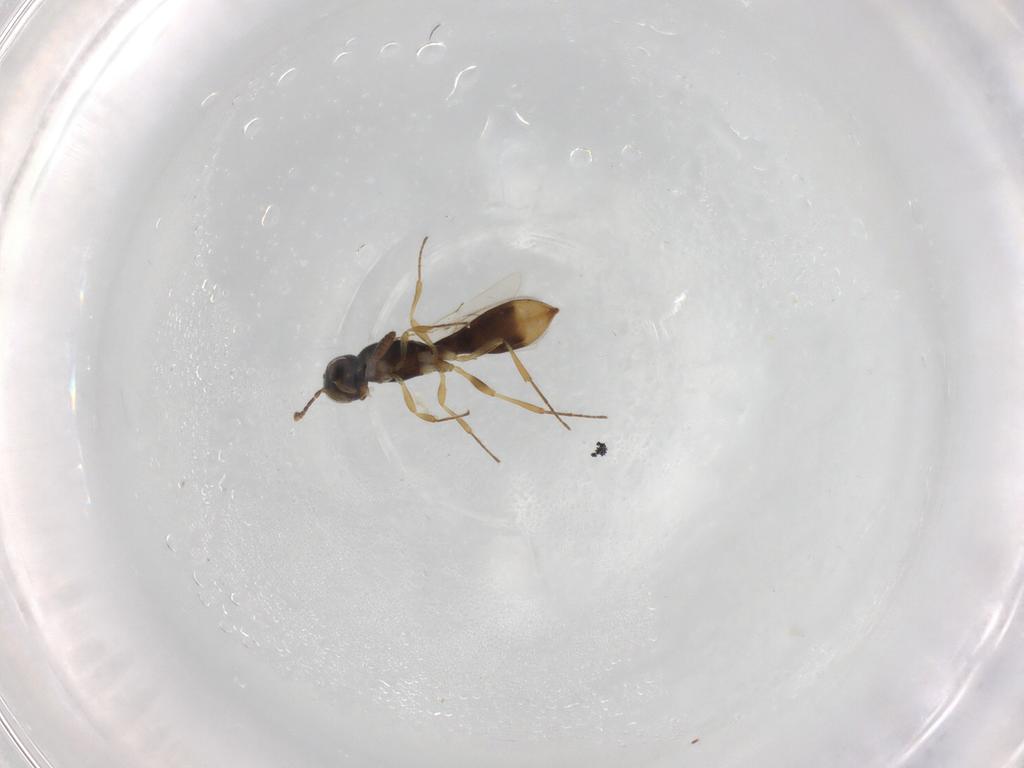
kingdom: Animalia
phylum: Arthropoda
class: Insecta
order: Hymenoptera
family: Scelionidae
